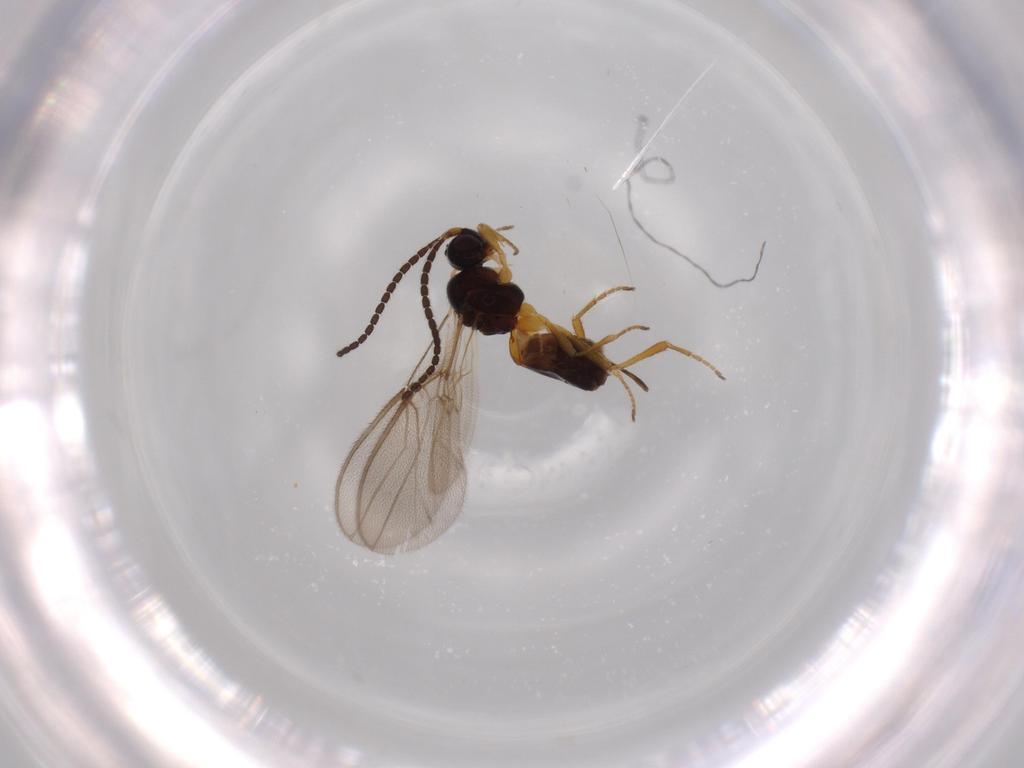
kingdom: Animalia
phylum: Arthropoda
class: Insecta
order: Hymenoptera
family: Braconidae
